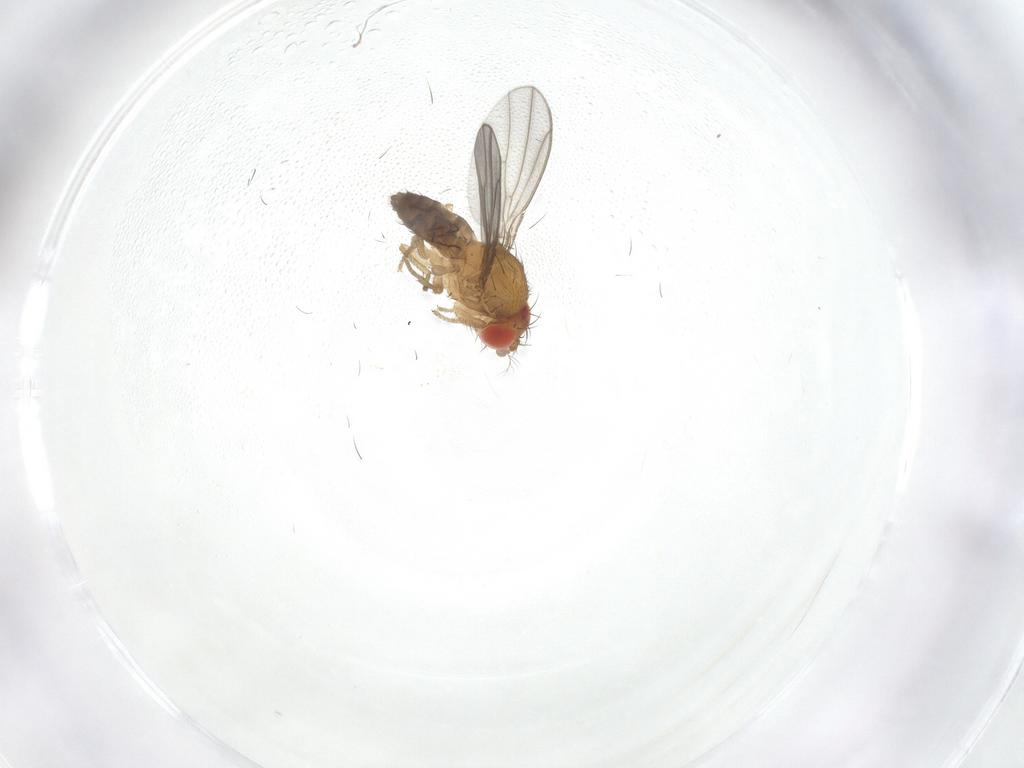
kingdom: Animalia
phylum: Arthropoda
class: Insecta
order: Diptera
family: Drosophilidae
